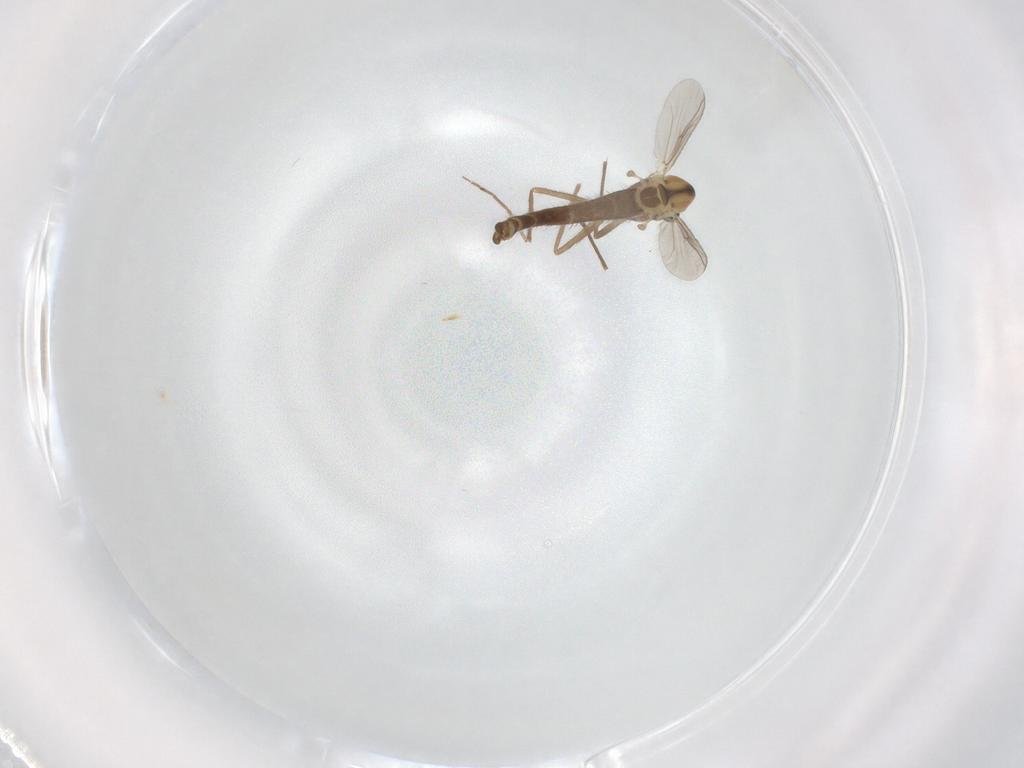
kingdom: Animalia
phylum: Arthropoda
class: Insecta
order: Diptera
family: Chironomidae
